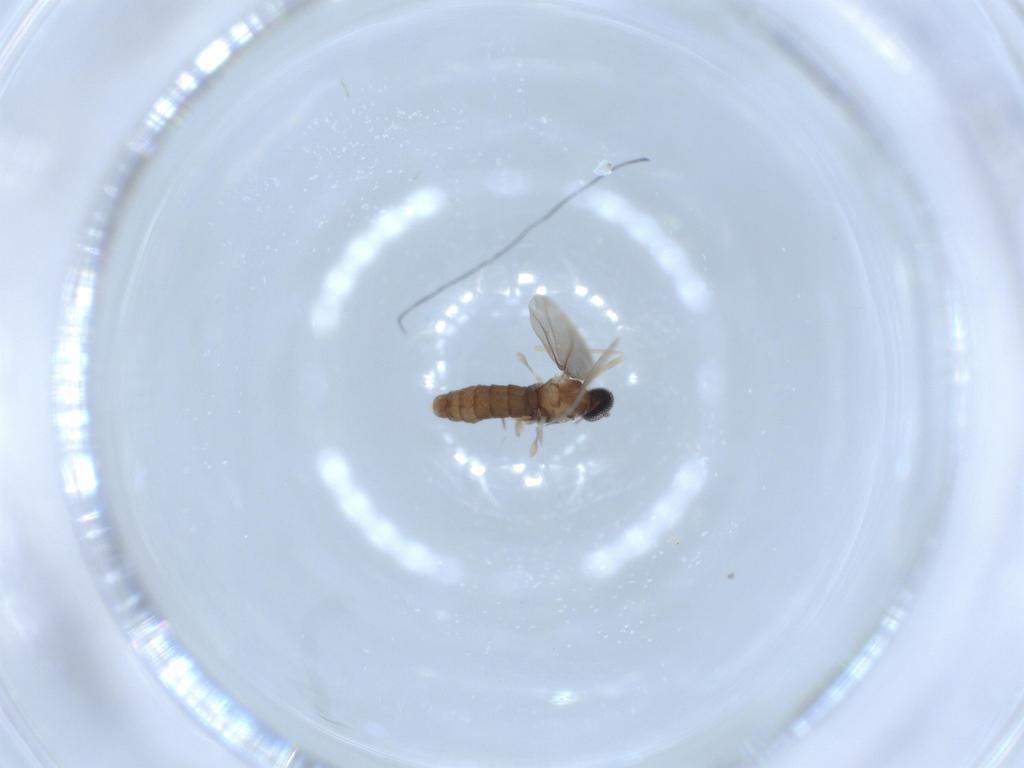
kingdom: Animalia
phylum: Arthropoda
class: Insecta
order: Diptera
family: Cecidomyiidae
